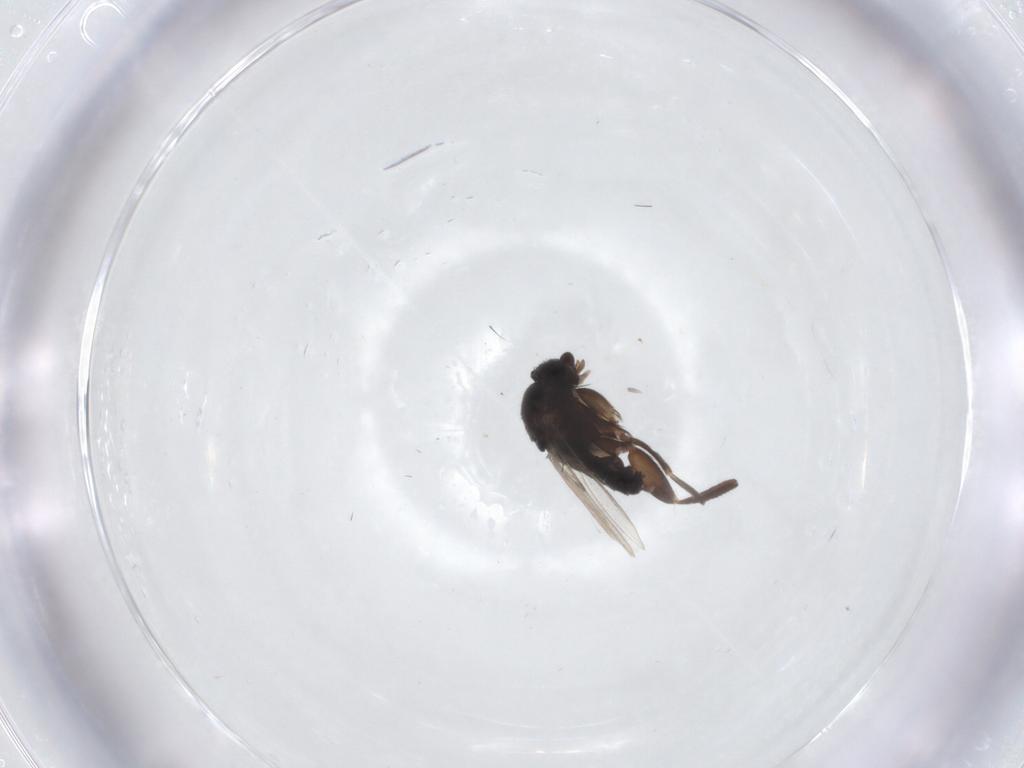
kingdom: Animalia
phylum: Arthropoda
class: Insecta
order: Diptera
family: Phoridae
